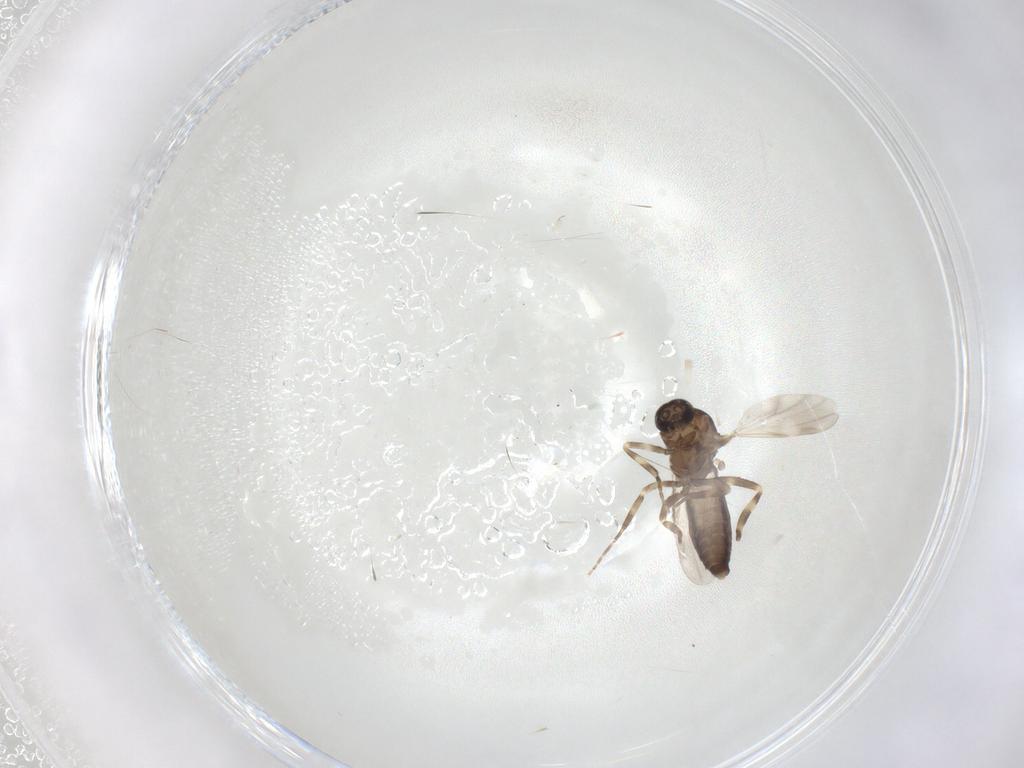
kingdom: Animalia
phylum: Arthropoda
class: Insecta
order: Diptera
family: Ceratopogonidae
